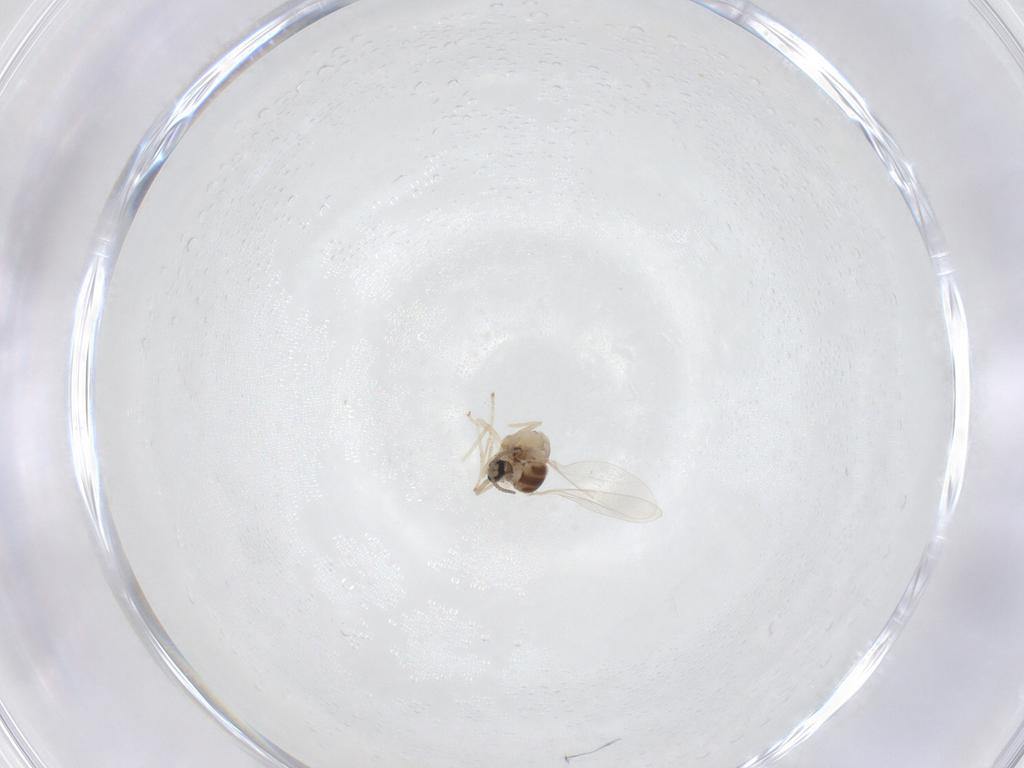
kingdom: Animalia
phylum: Arthropoda
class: Insecta
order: Diptera
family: Cecidomyiidae
